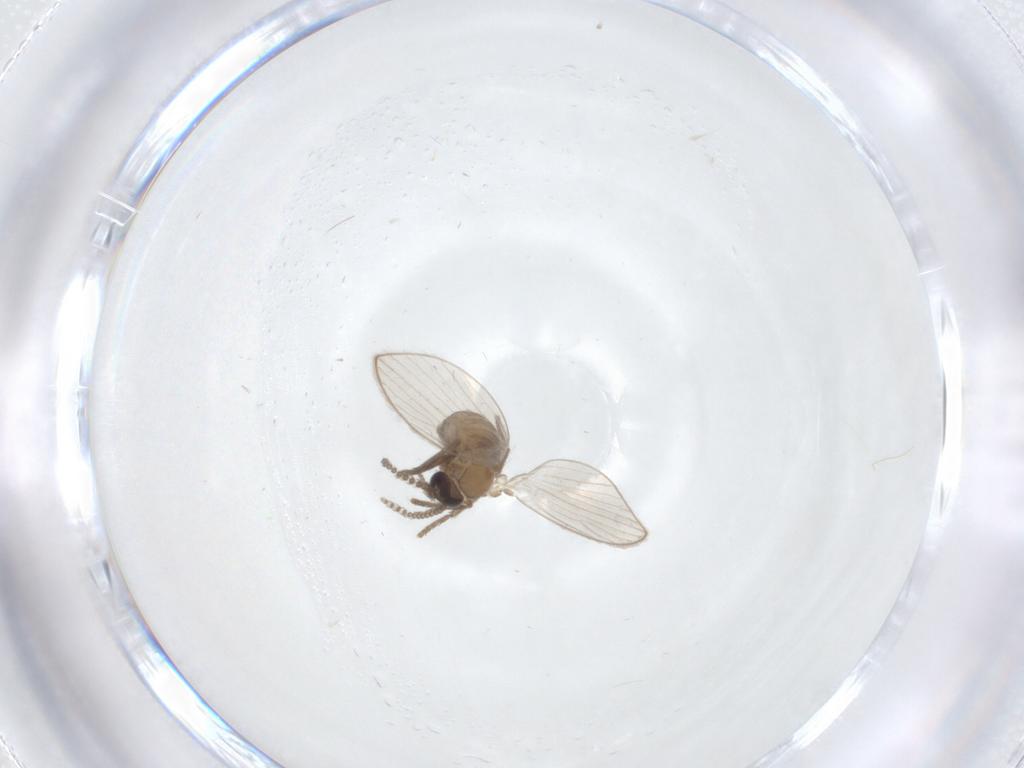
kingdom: Animalia
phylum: Arthropoda
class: Insecta
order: Diptera
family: Psychodidae
